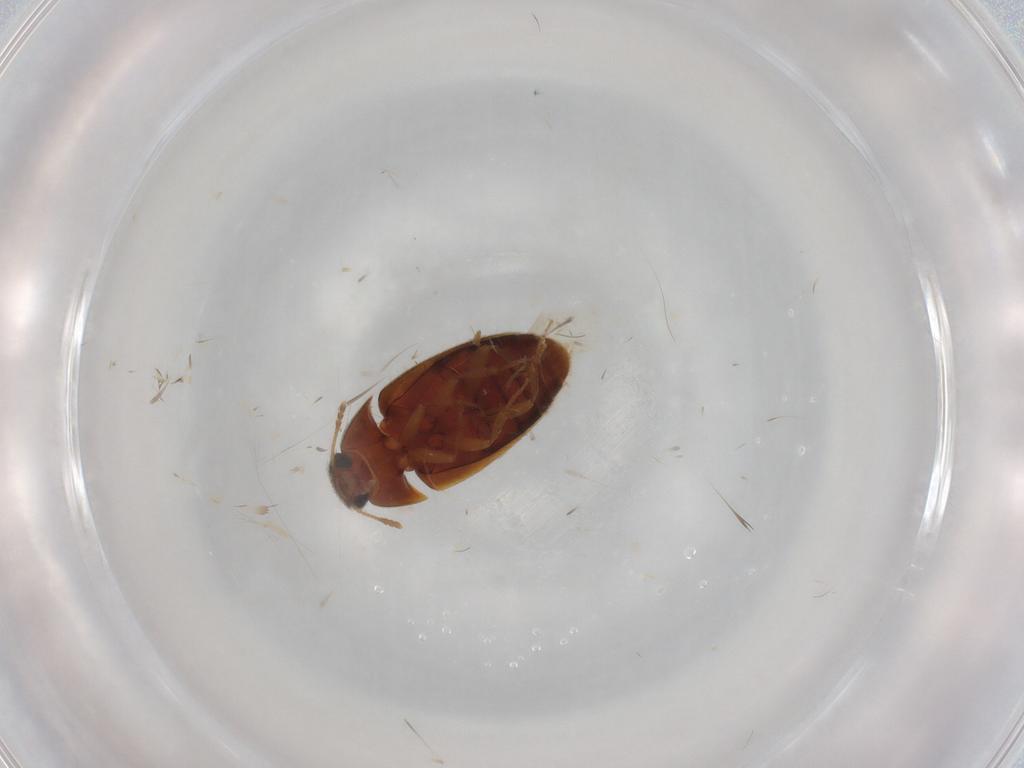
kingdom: Animalia
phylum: Arthropoda
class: Insecta
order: Coleoptera
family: Mycetophagidae
